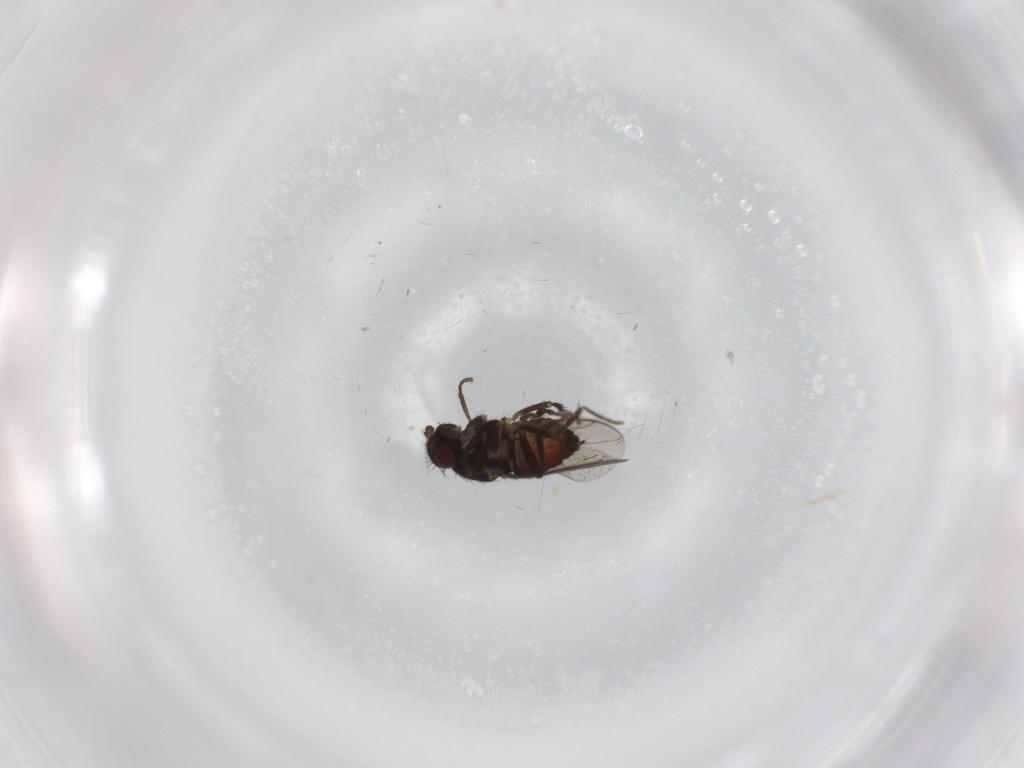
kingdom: Animalia
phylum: Arthropoda
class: Insecta
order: Diptera
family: Sphaeroceridae
